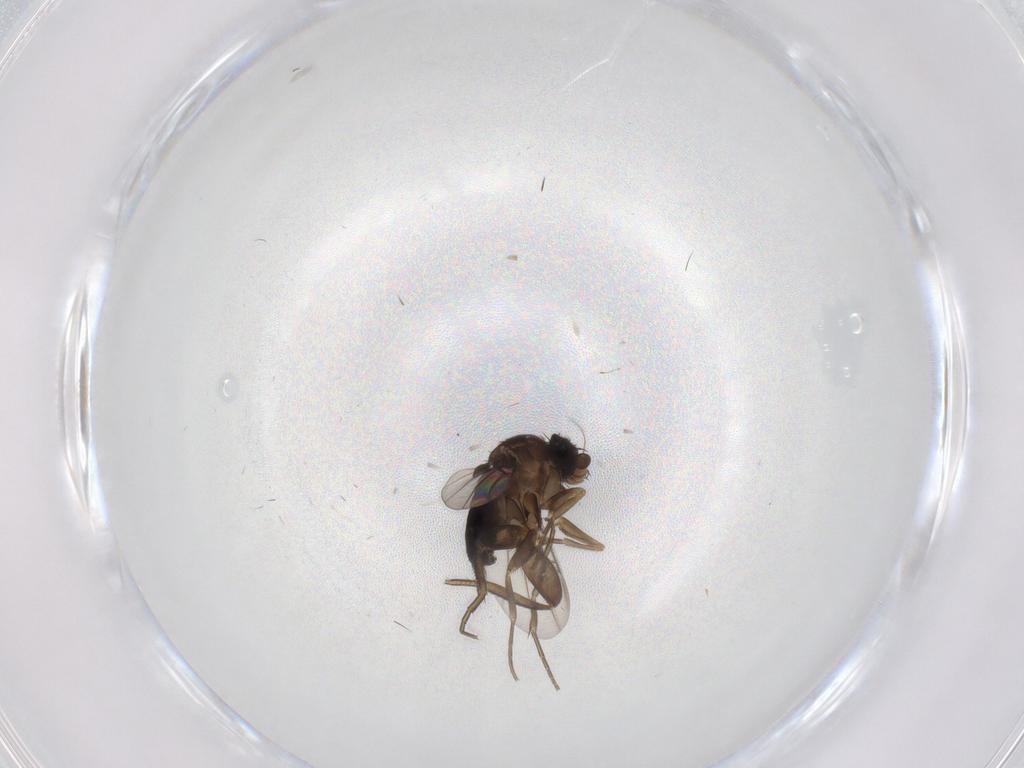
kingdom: Animalia
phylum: Arthropoda
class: Insecta
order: Diptera
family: Phoridae
